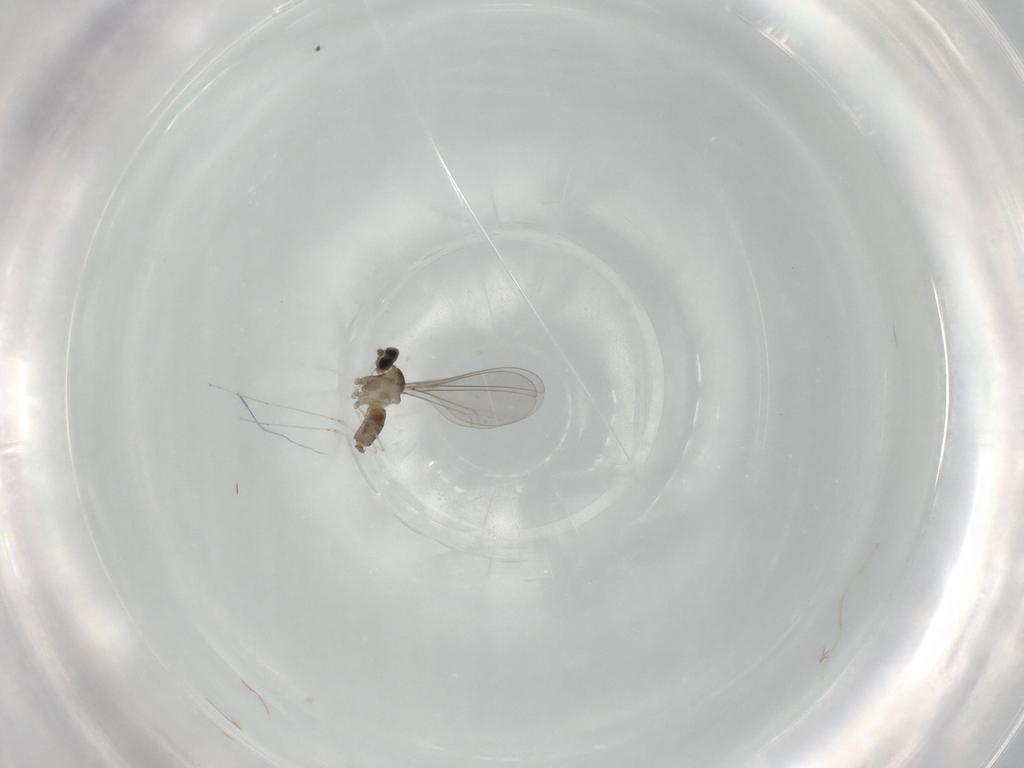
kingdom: Animalia
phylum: Arthropoda
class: Insecta
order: Diptera
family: Cecidomyiidae
